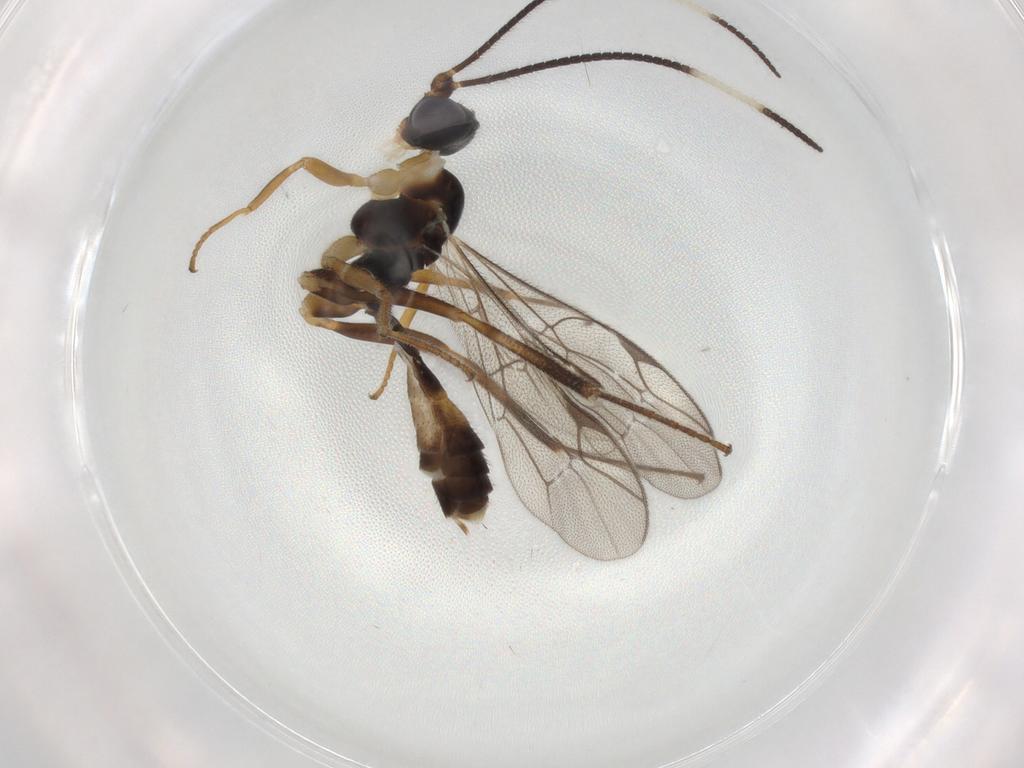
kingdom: Animalia
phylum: Arthropoda
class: Insecta
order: Hymenoptera
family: Ichneumonidae
